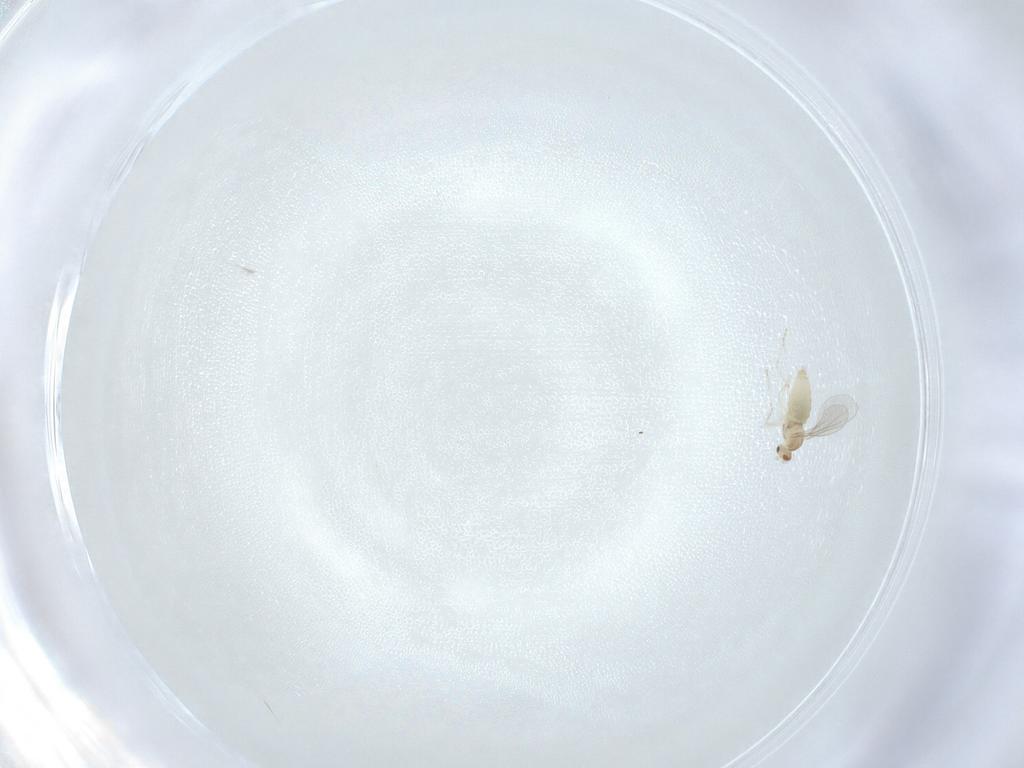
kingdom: Animalia
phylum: Arthropoda
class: Insecta
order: Diptera
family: Cecidomyiidae
